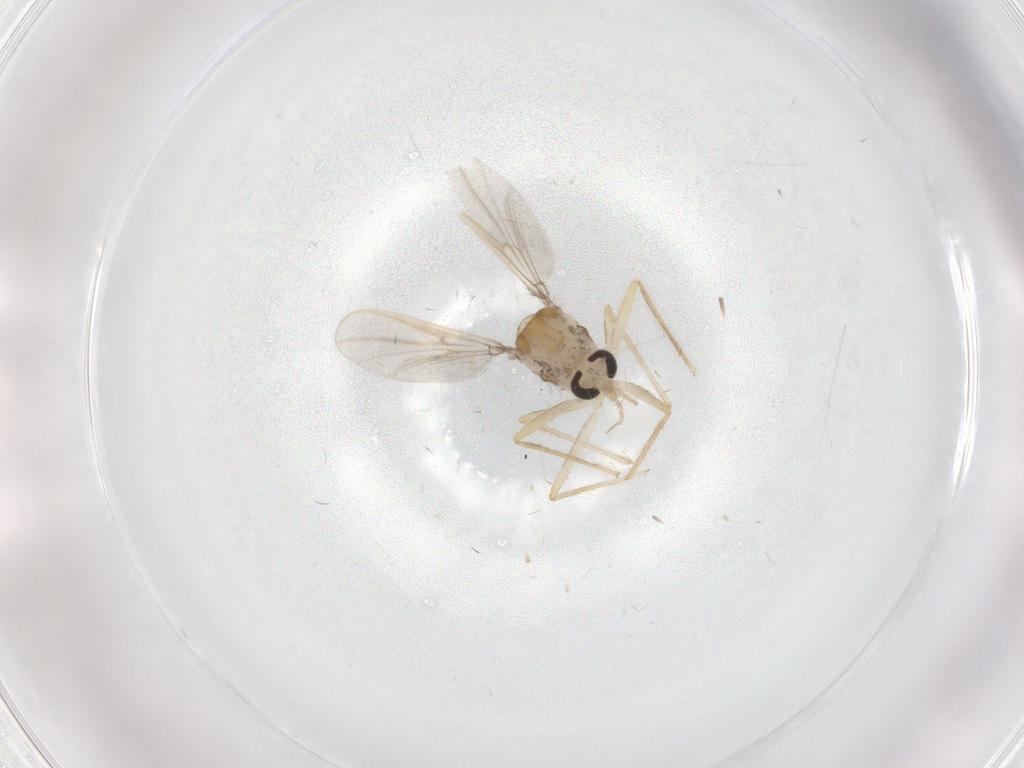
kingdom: Animalia
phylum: Arthropoda
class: Insecta
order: Diptera
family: Chironomidae
